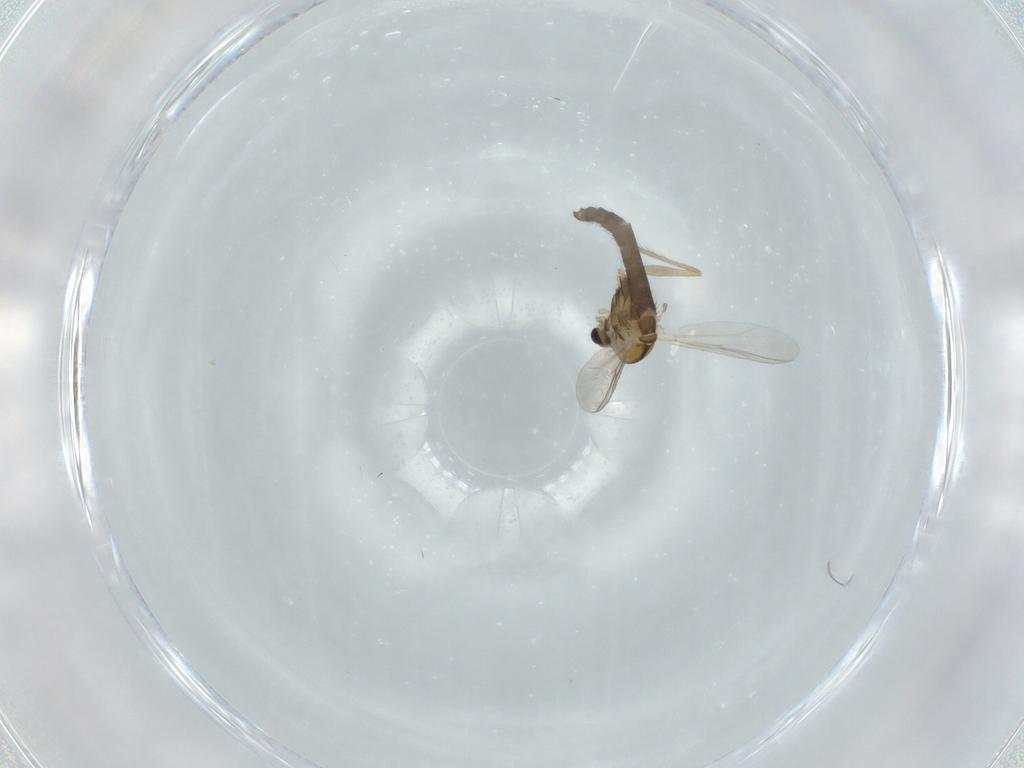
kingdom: Animalia
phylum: Arthropoda
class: Insecta
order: Diptera
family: Chironomidae
